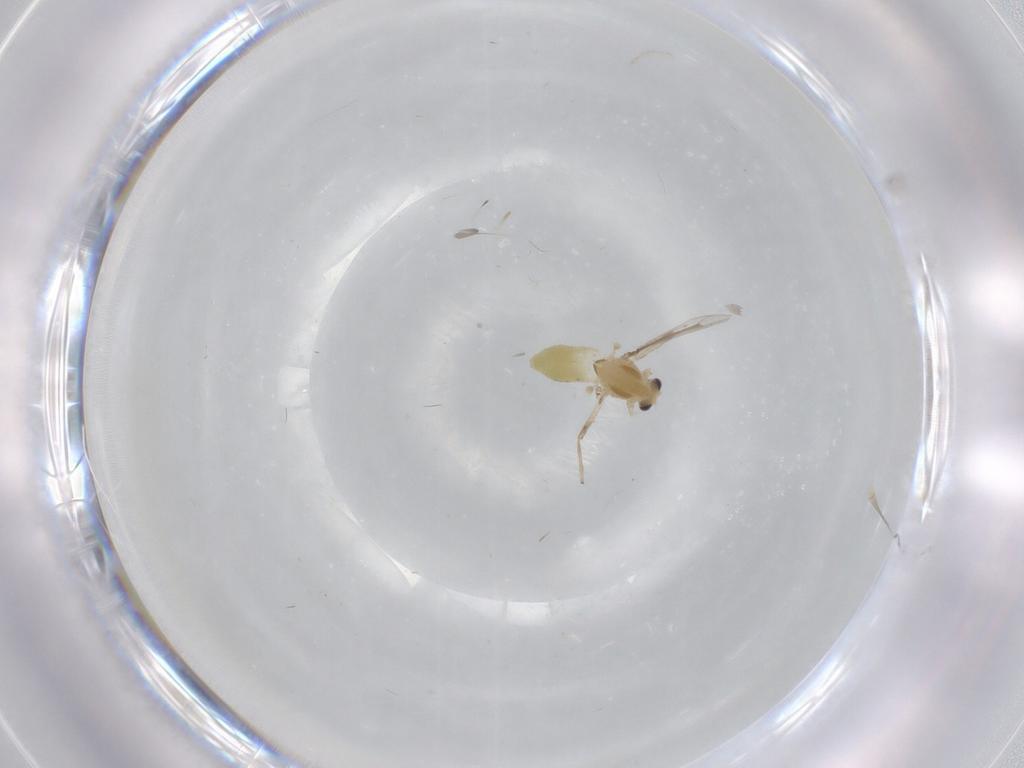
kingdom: Animalia
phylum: Arthropoda
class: Insecta
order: Diptera
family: Chironomidae
